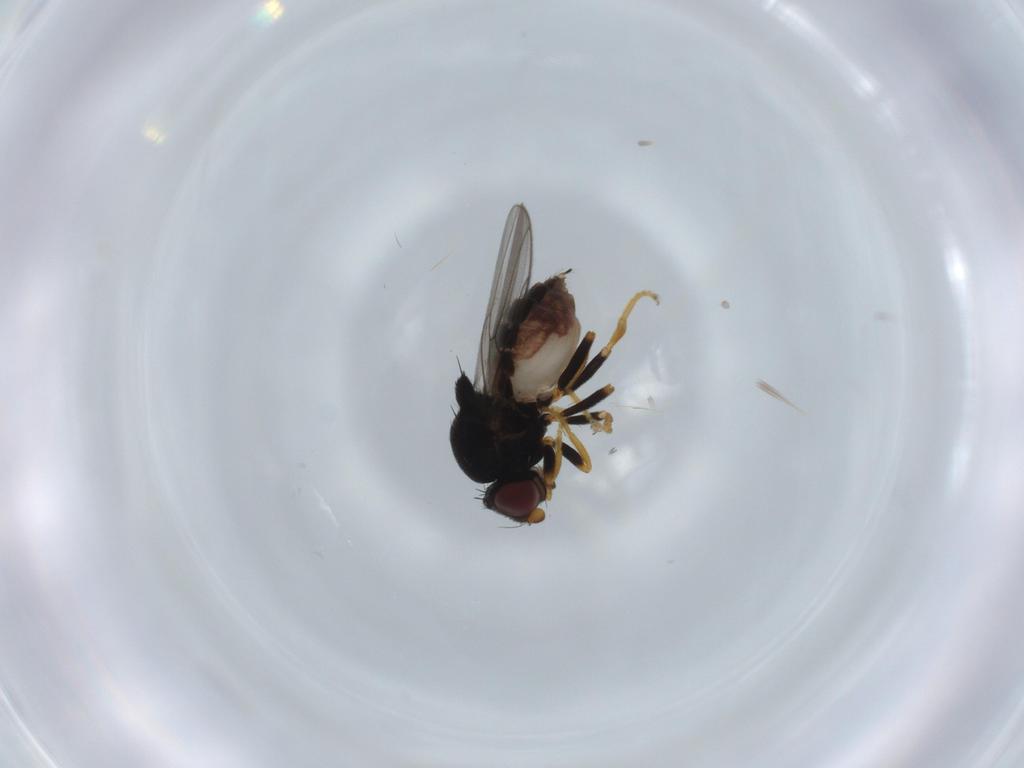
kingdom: Animalia
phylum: Arthropoda
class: Insecta
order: Diptera
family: Chloropidae
